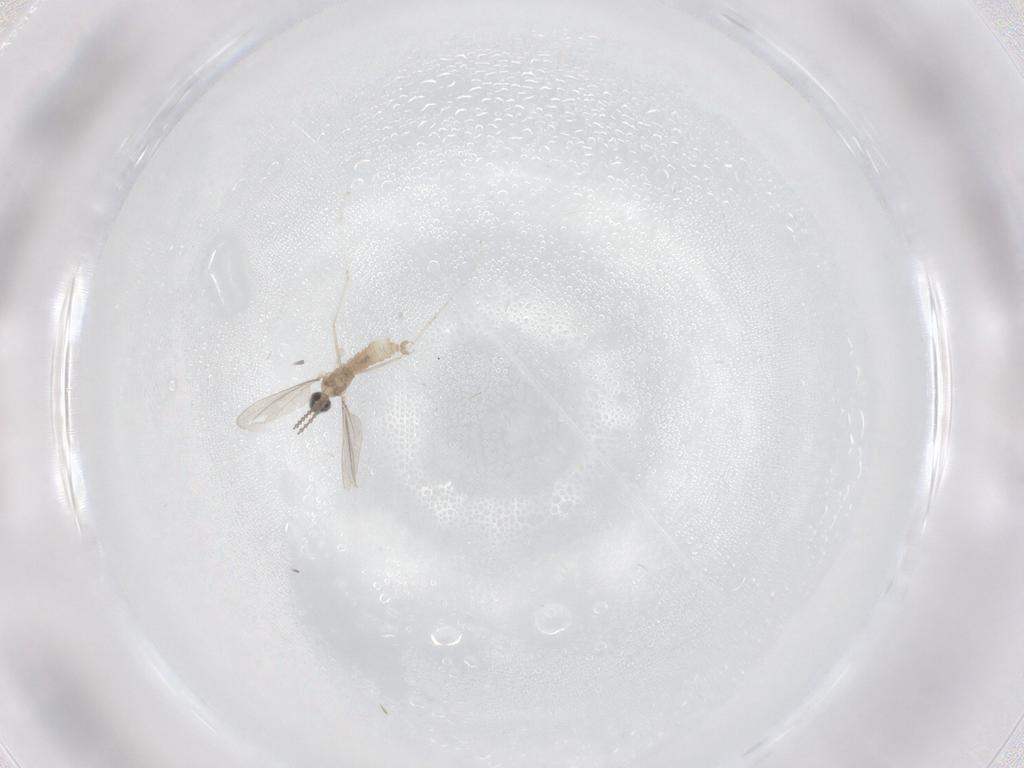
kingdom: Animalia
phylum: Arthropoda
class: Insecta
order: Diptera
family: Cecidomyiidae
